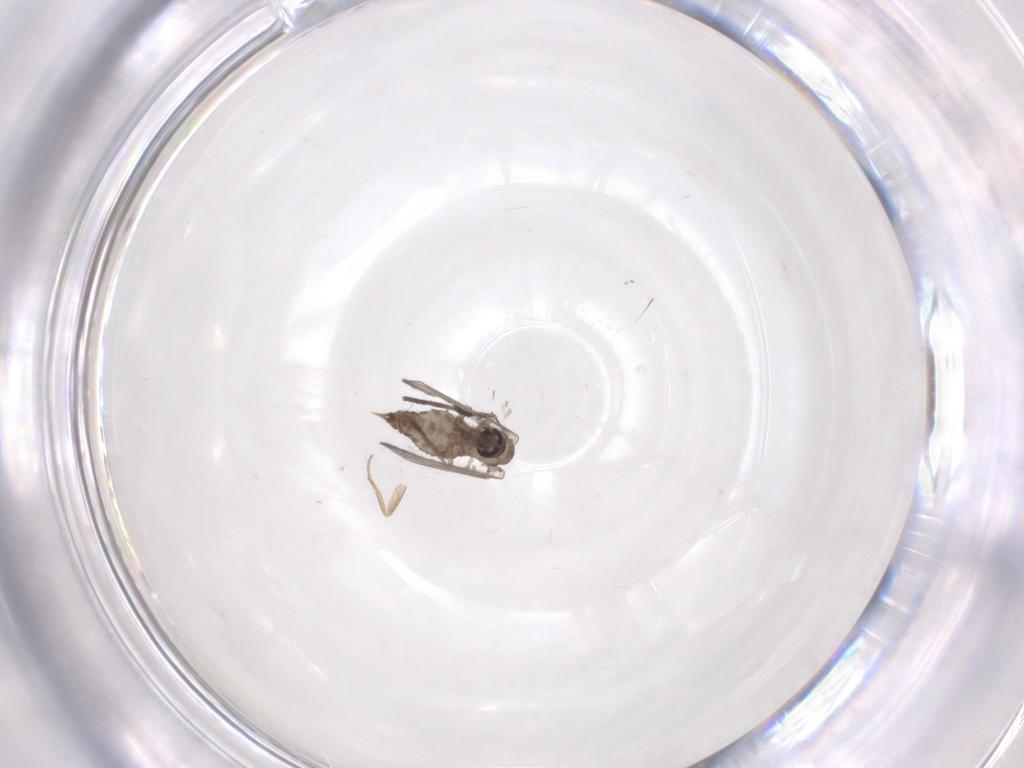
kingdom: Animalia
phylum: Arthropoda
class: Insecta
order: Diptera
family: Psychodidae
